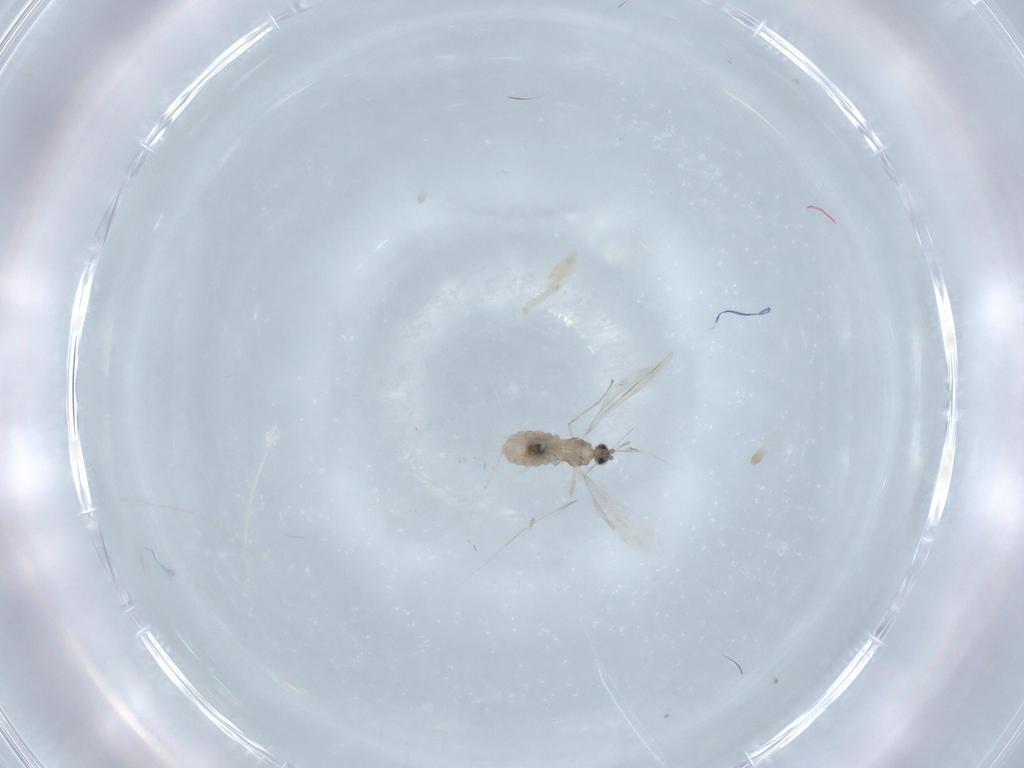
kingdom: Animalia
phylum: Arthropoda
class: Insecta
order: Diptera
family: Cecidomyiidae
